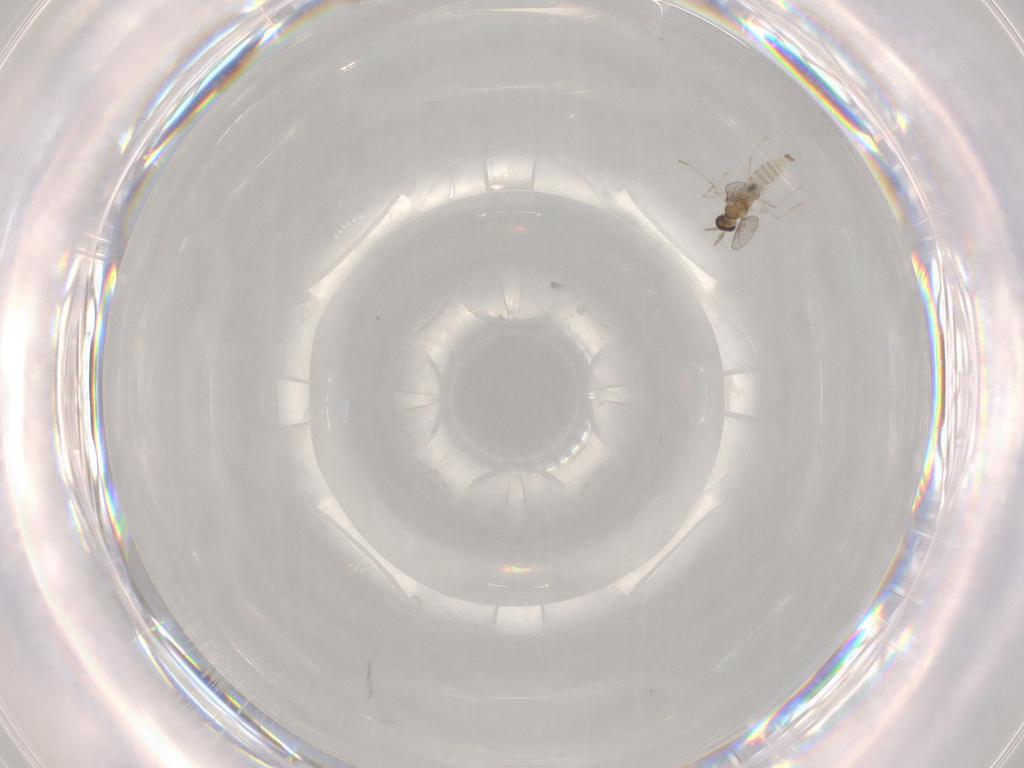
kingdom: Animalia
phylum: Arthropoda
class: Insecta
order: Diptera
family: Cecidomyiidae
